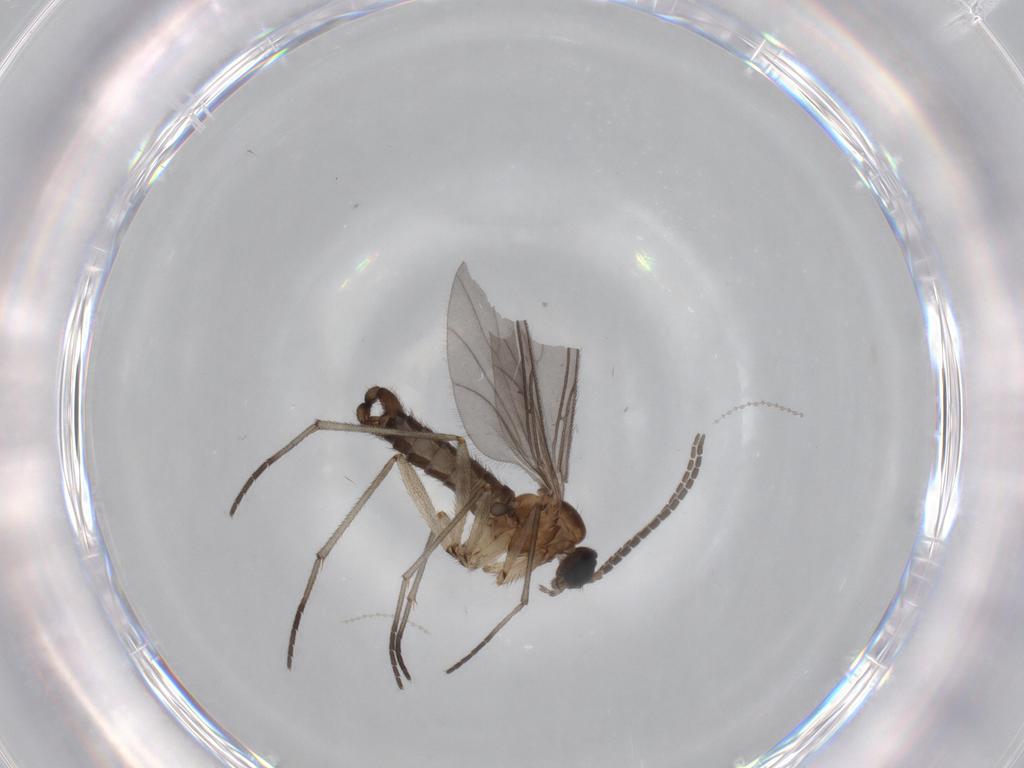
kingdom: Animalia
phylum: Arthropoda
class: Insecta
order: Diptera
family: Sciaridae
